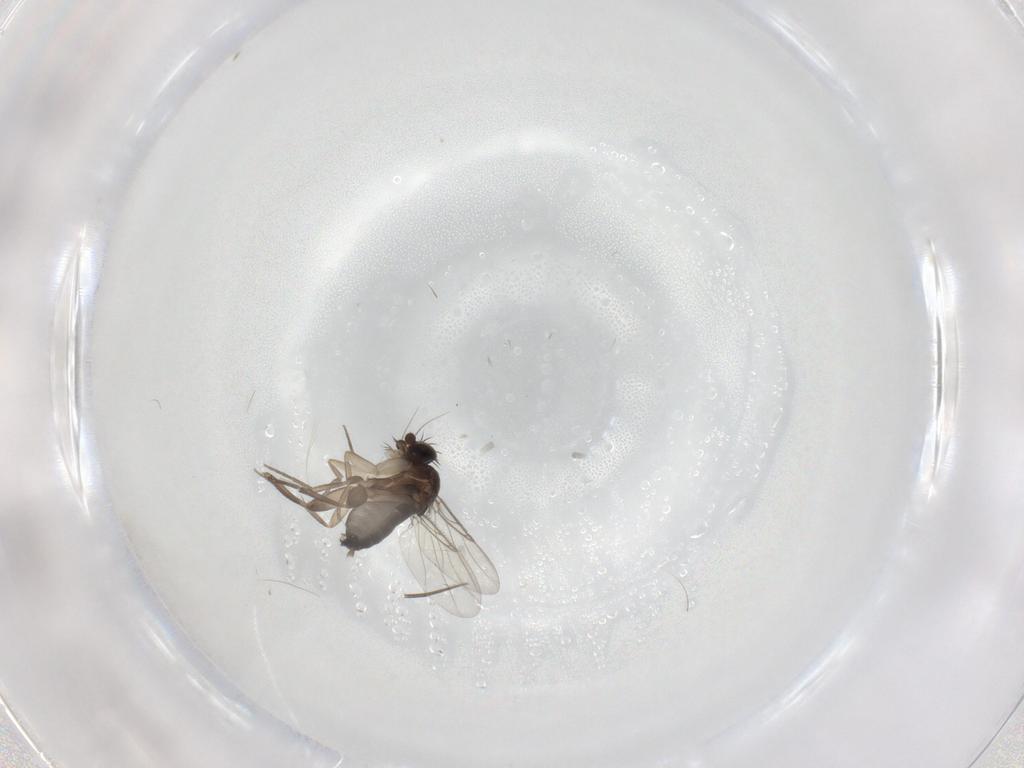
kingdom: Animalia
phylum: Arthropoda
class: Insecta
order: Diptera
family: Phoridae
